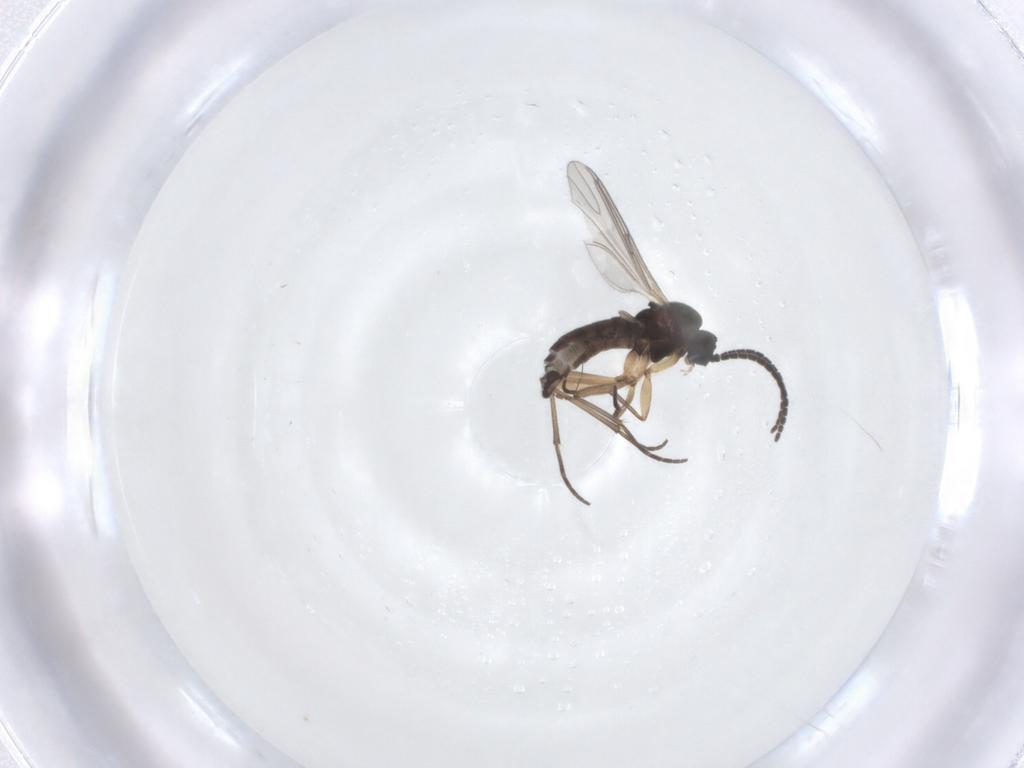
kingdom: Animalia
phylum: Arthropoda
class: Insecta
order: Diptera
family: Sciaridae
